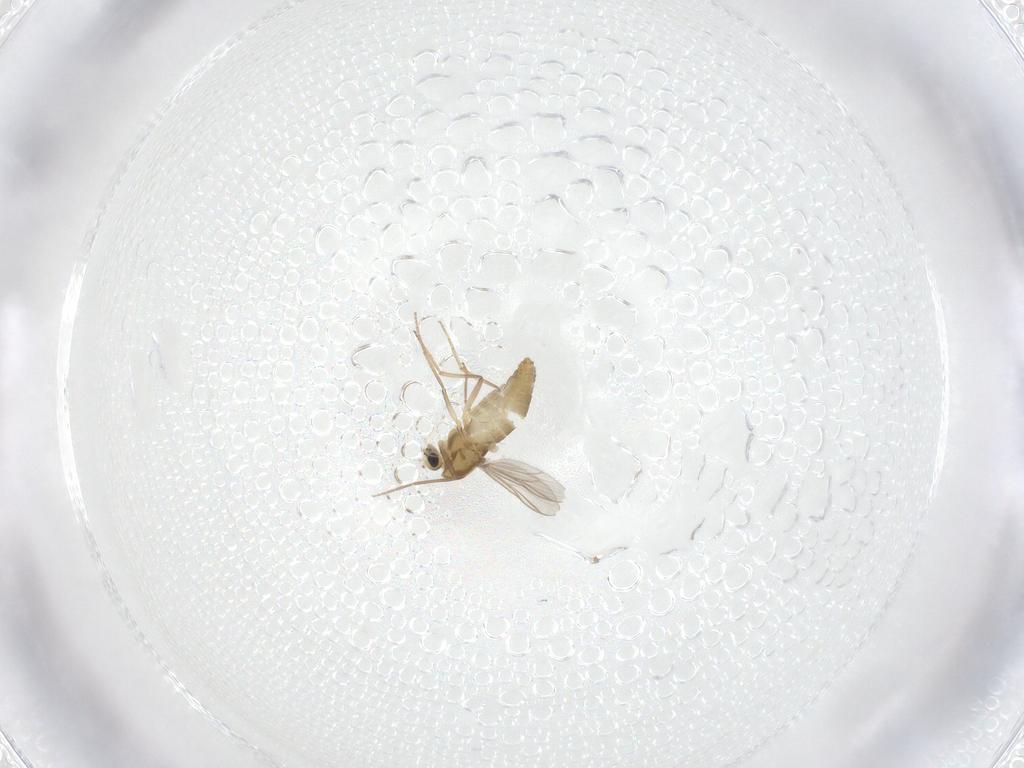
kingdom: Animalia
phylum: Arthropoda
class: Insecta
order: Diptera
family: Chironomidae
